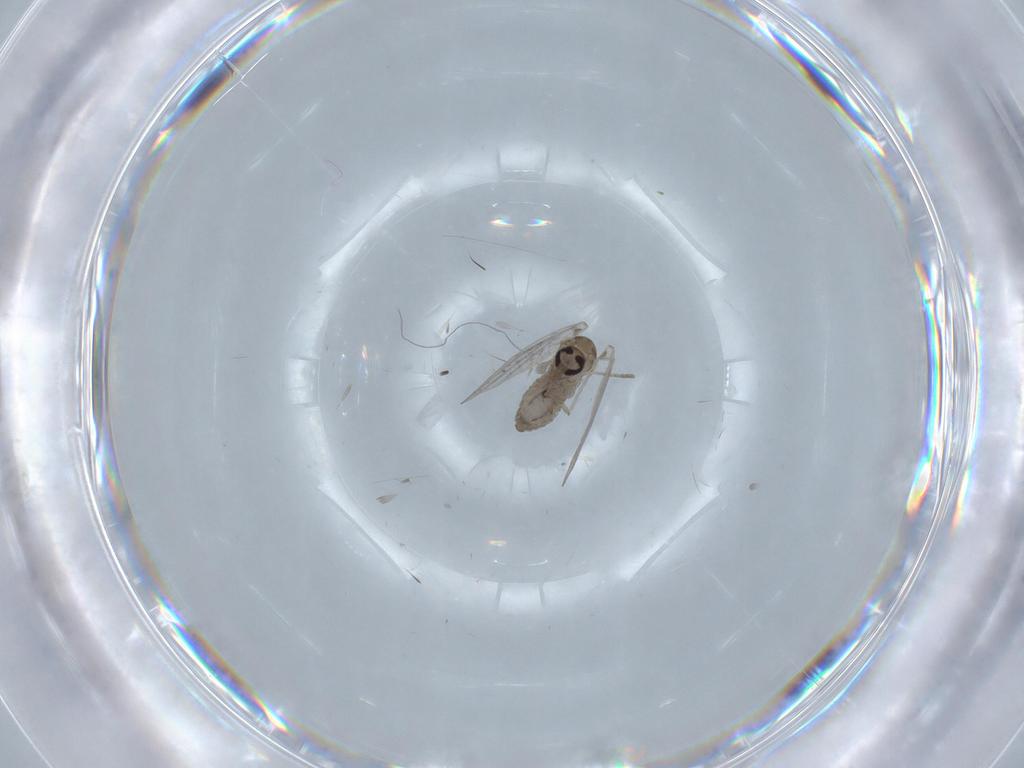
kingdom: Animalia
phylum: Arthropoda
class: Insecta
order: Diptera
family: Psychodidae
